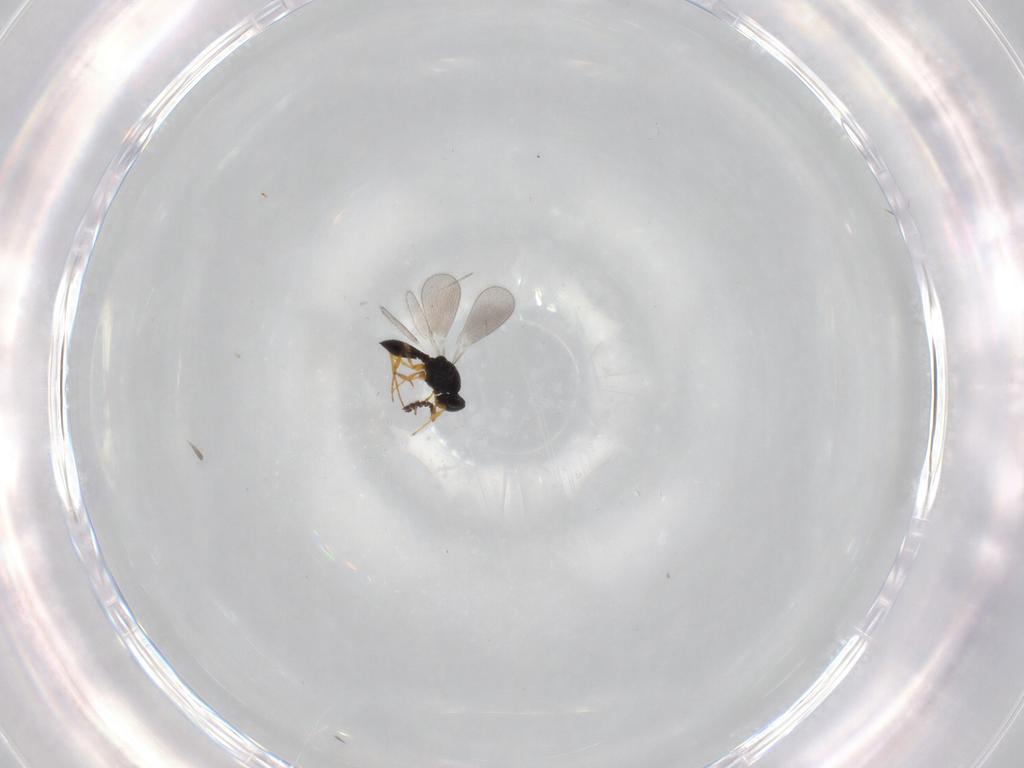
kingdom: Animalia
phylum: Arthropoda
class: Insecta
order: Hymenoptera
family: Platygastridae
